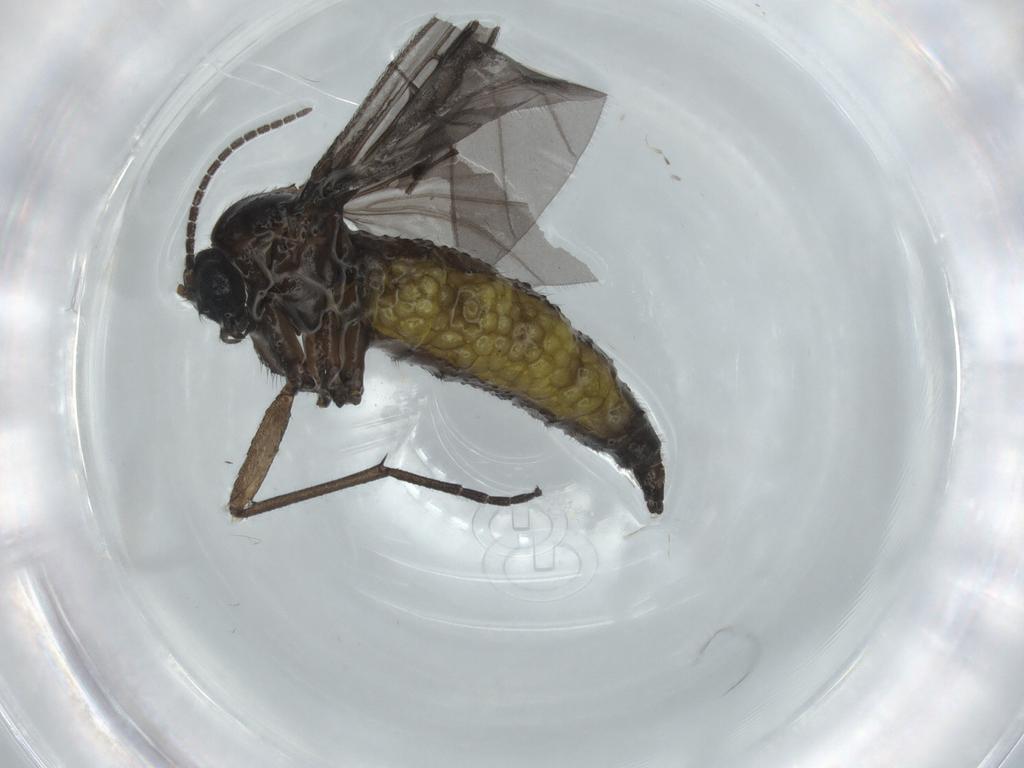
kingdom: Animalia
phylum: Arthropoda
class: Insecta
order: Diptera
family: Sciaridae
